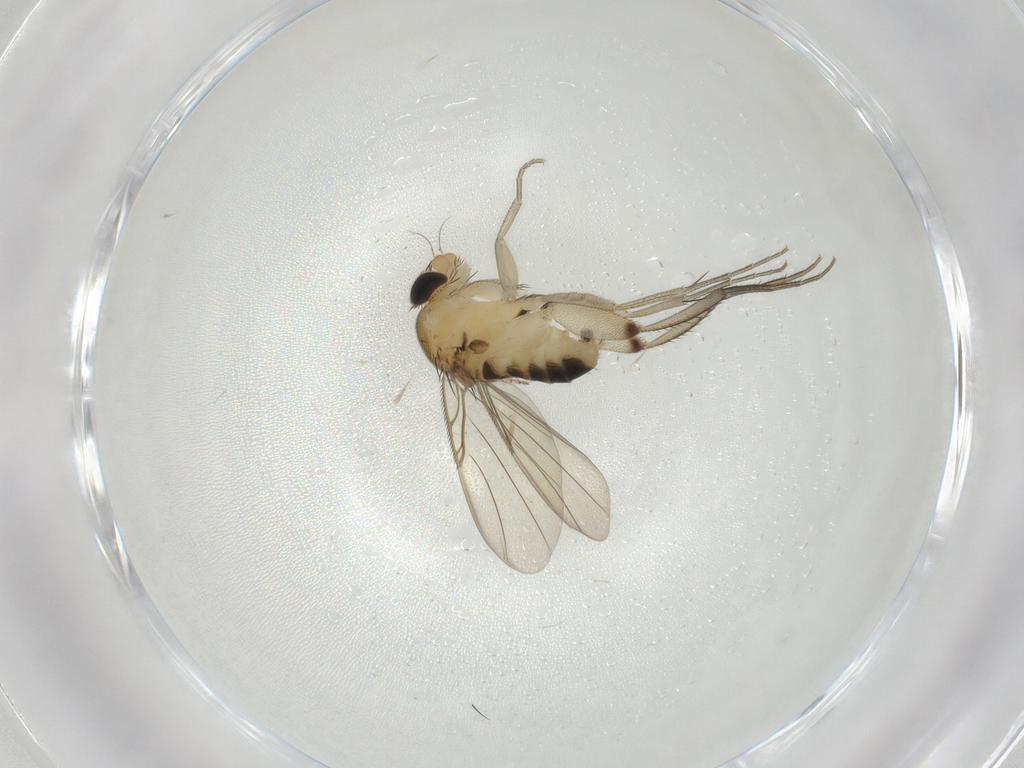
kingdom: Animalia
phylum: Arthropoda
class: Insecta
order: Diptera
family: Phoridae
